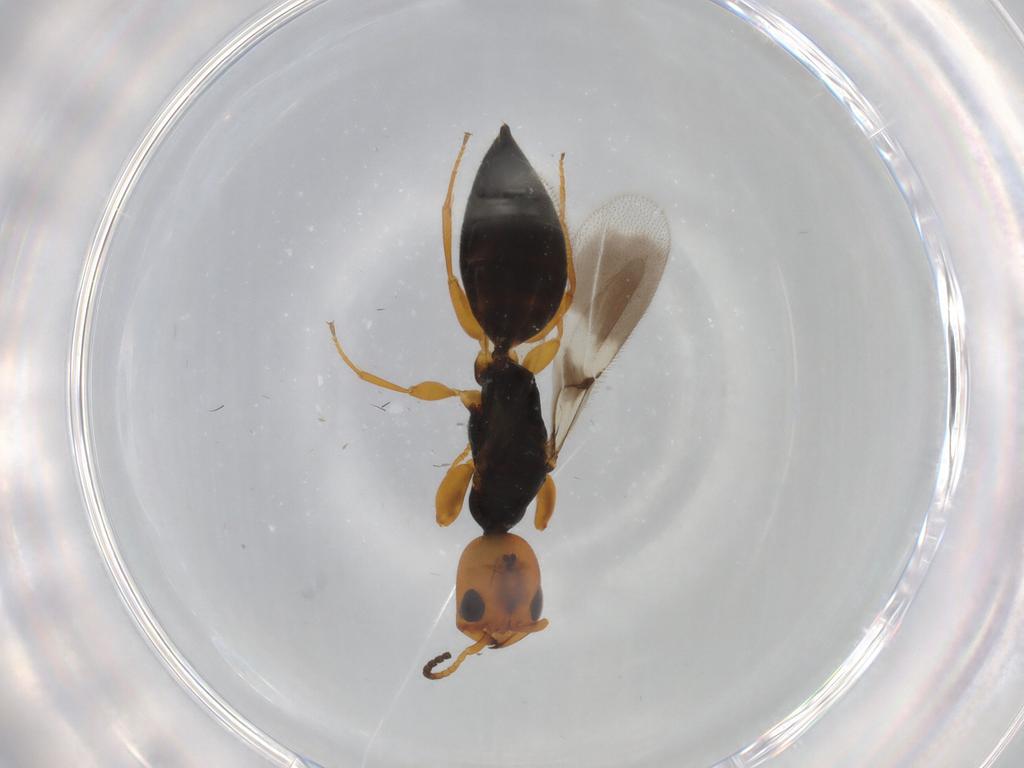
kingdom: Animalia
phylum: Arthropoda
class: Insecta
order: Hymenoptera
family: Bethylidae
